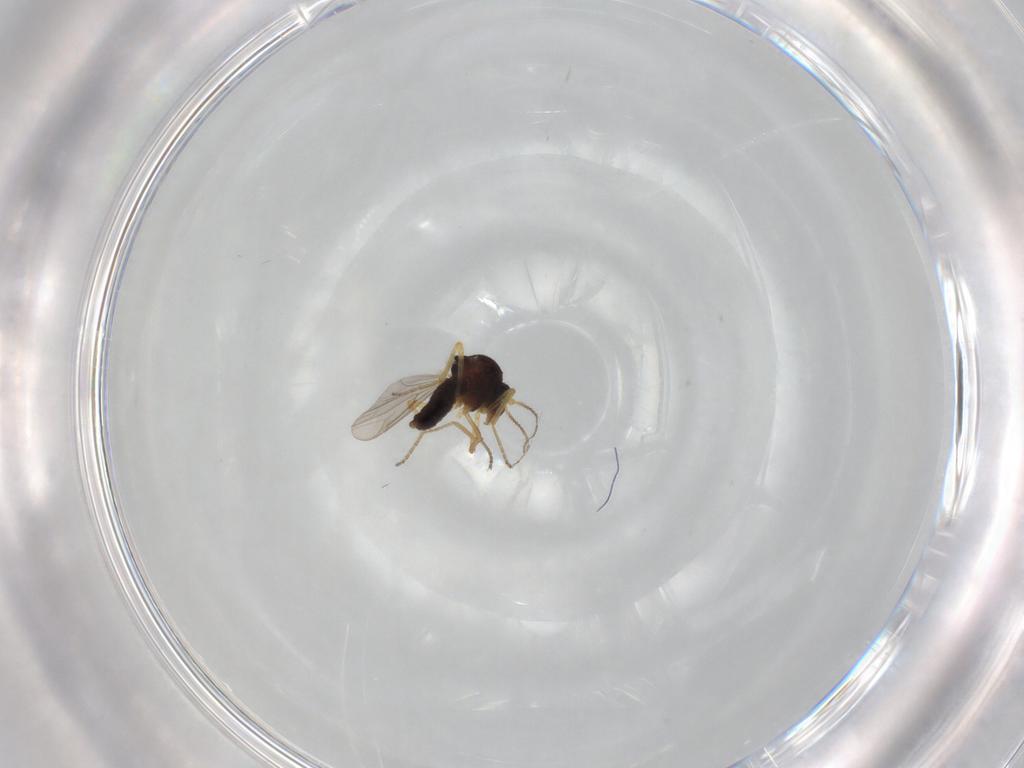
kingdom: Animalia
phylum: Arthropoda
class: Insecta
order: Diptera
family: Ceratopogonidae
